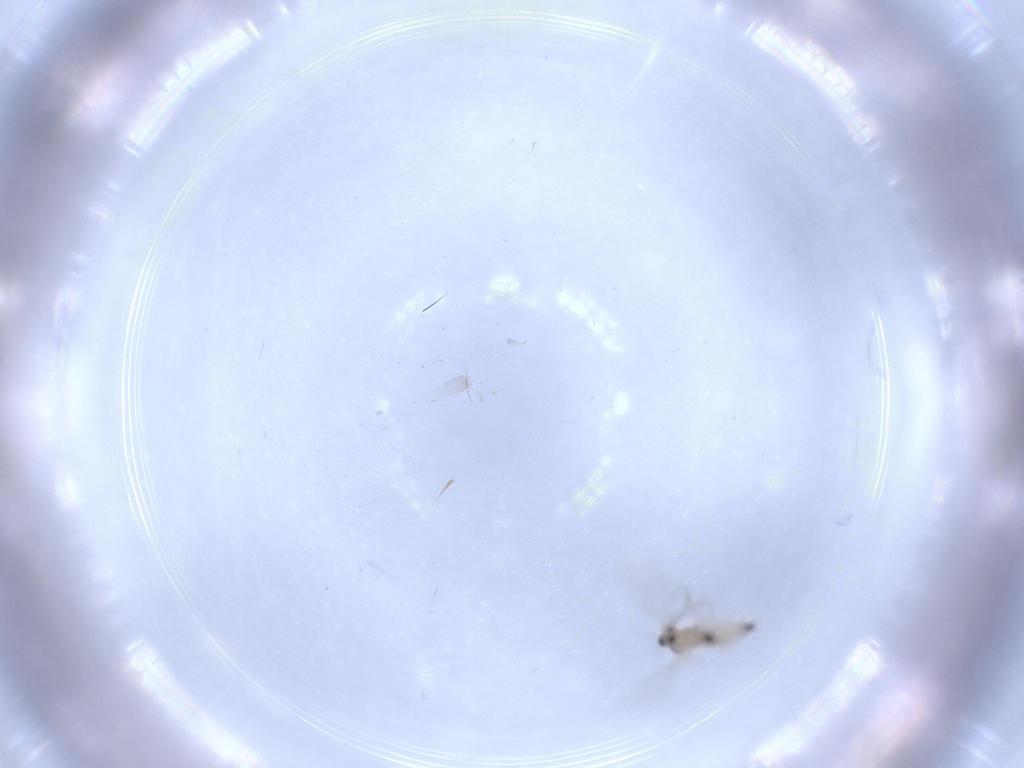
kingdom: Animalia
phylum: Arthropoda
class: Insecta
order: Diptera
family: Cecidomyiidae
